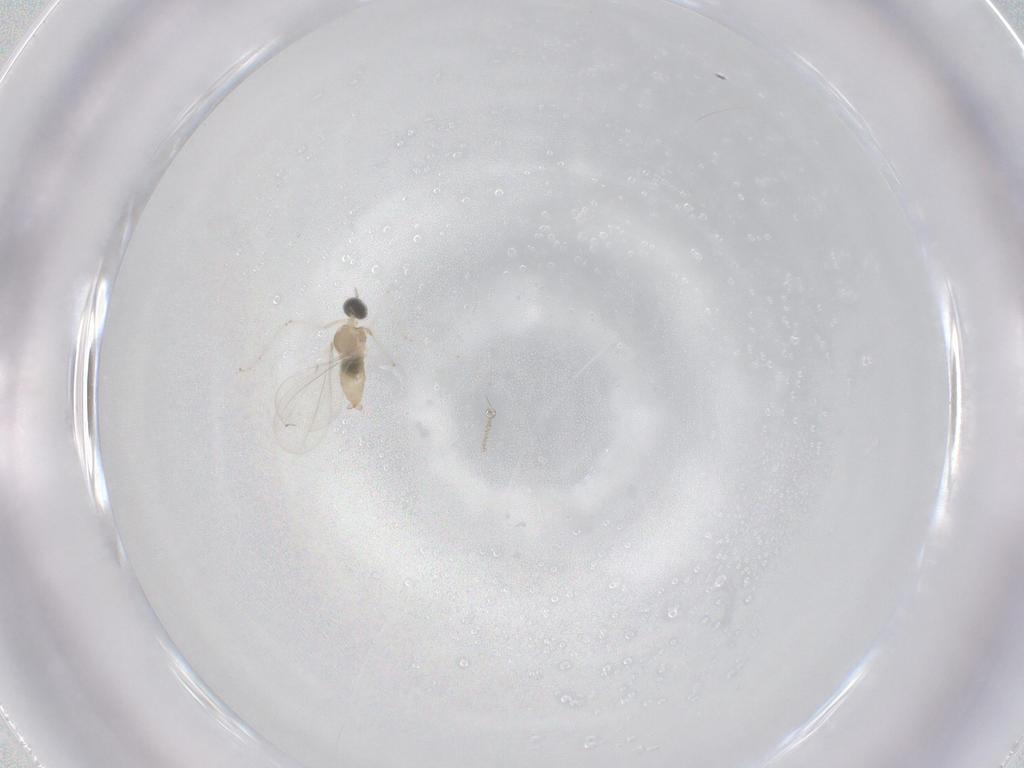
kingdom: Animalia
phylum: Arthropoda
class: Insecta
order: Diptera
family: Cecidomyiidae
